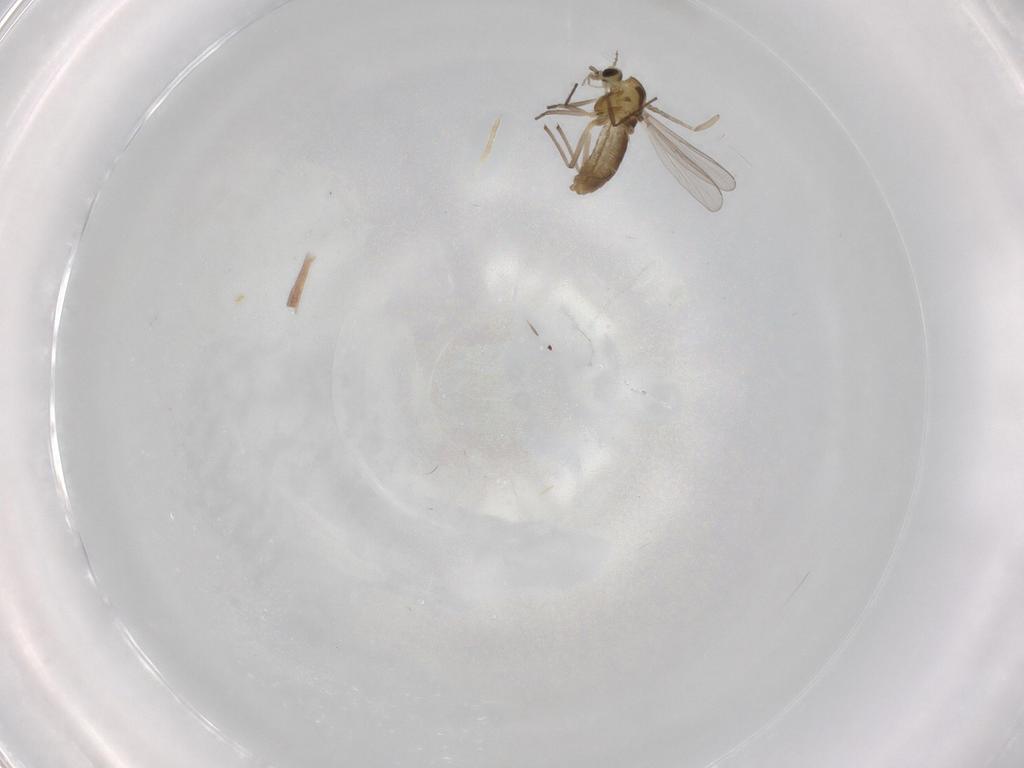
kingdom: Animalia
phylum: Arthropoda
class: Insecta
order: Diptera
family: Chironomidae
